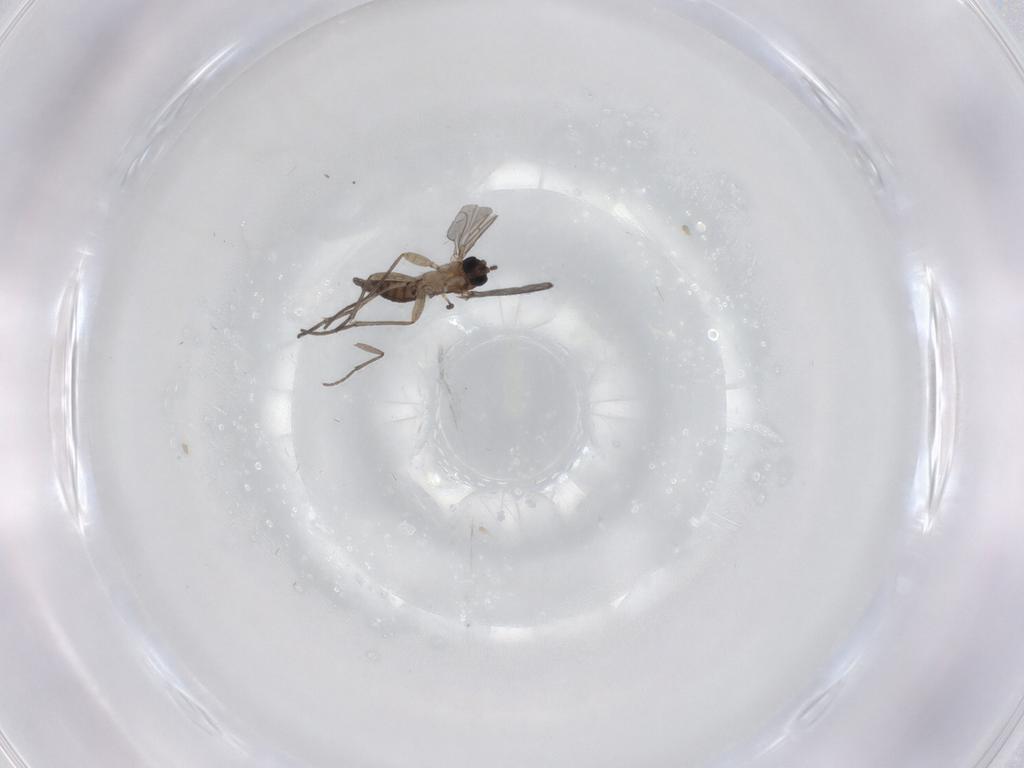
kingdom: Animalia
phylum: Arthropoda
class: Insecta
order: Diptera
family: Sciaridae
